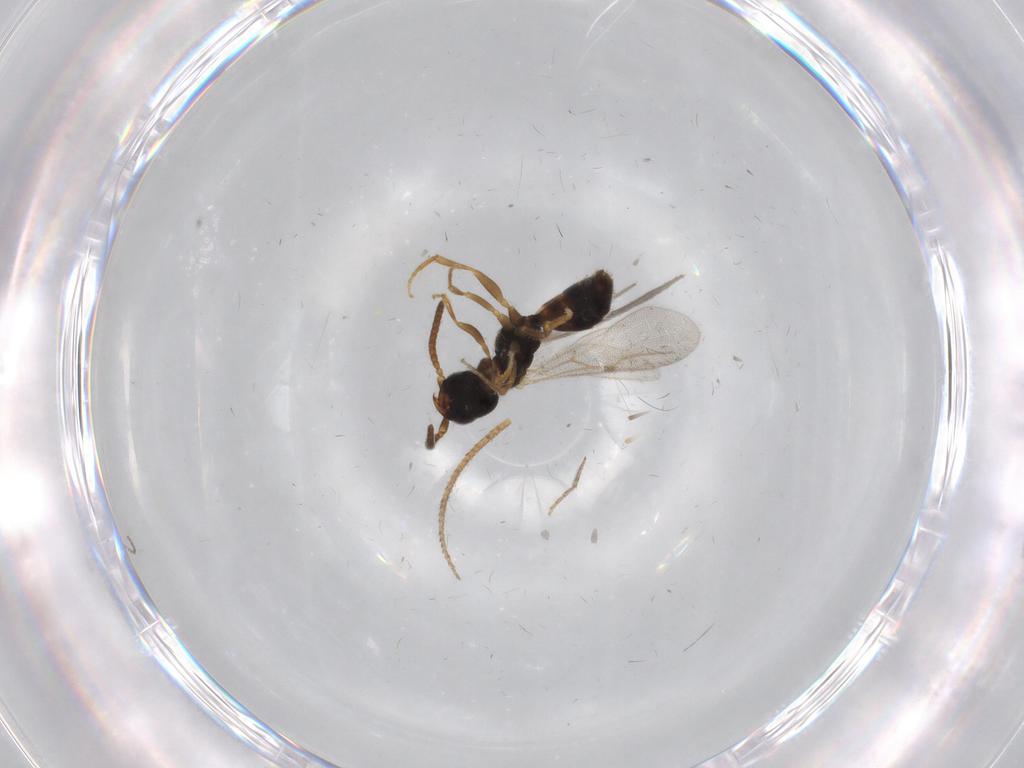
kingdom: Animalia
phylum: Arthropoda
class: Insecta
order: Hymenoptera
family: Bethylidae
